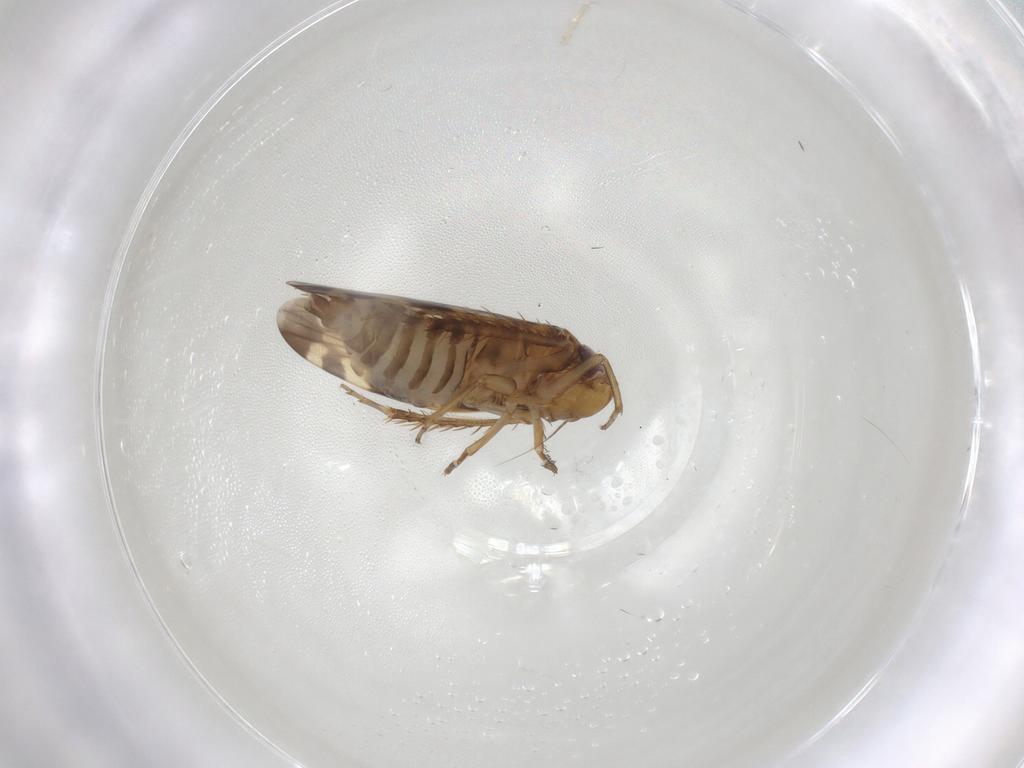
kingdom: Animalia
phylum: Arthropoda
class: Insecta
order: Hemiptera
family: Cicadellidae
